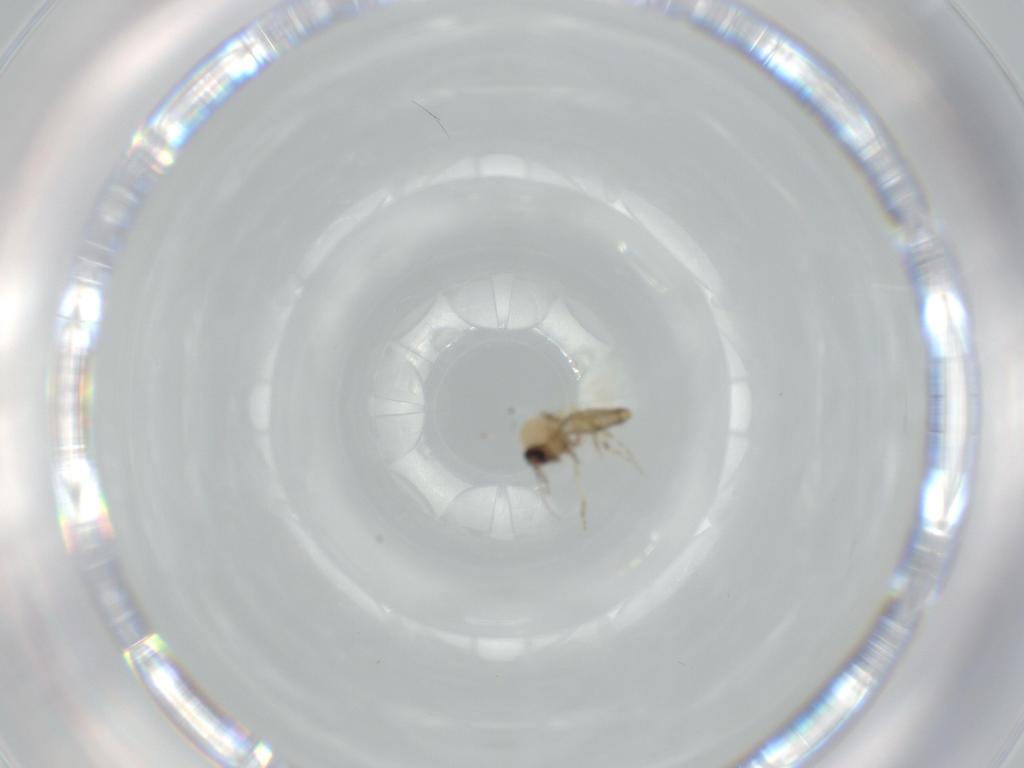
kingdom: Animalia
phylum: Arthropoda
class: Insecta
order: Diptera
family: Ceratopogonidae
